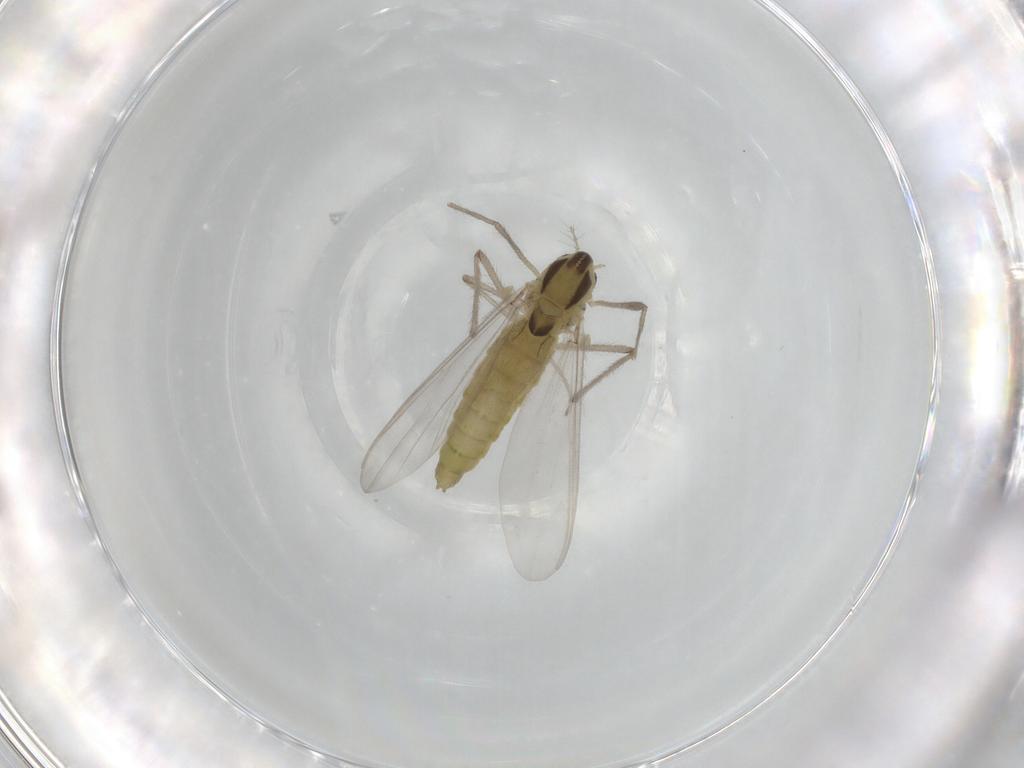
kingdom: Animalia
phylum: Arthropoda
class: Insecta
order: Diptera
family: Chironomidae
